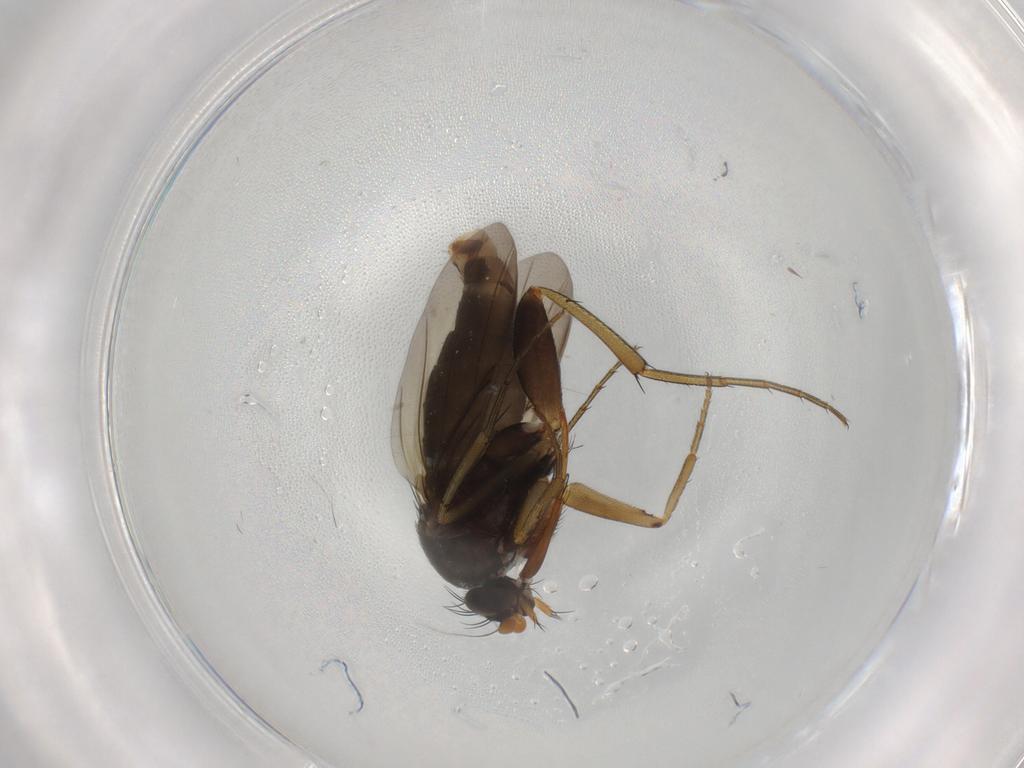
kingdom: Animalia
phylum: Arthropoda
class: Insecta
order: Diptera
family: Phoridae
